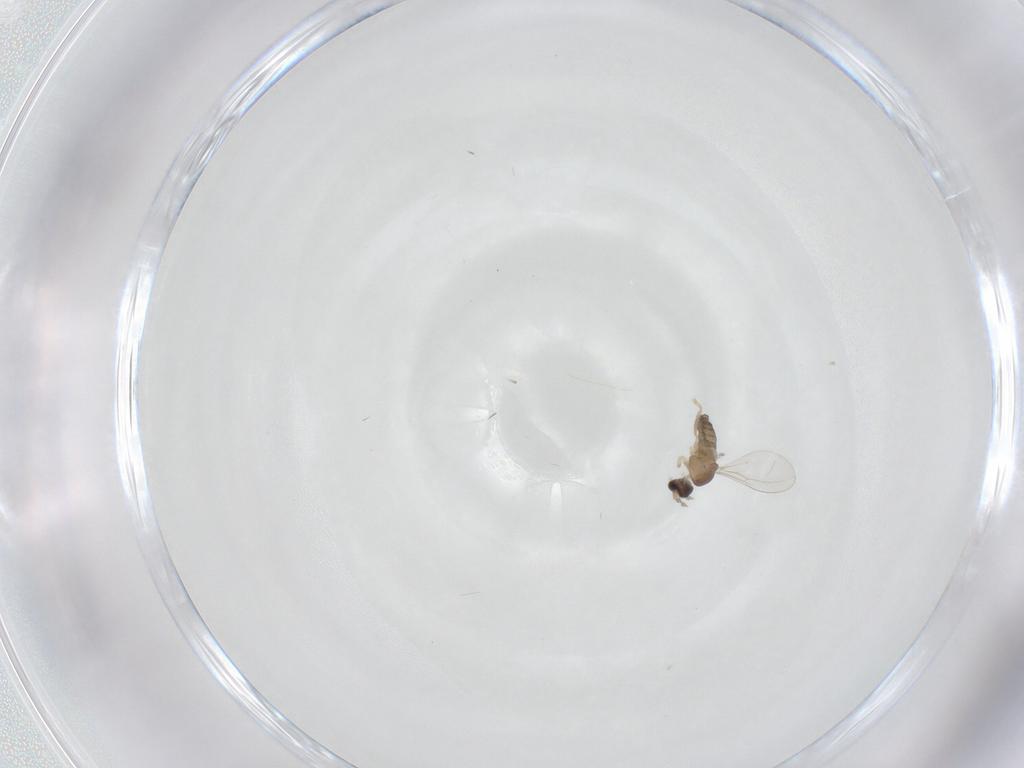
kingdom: Animalia
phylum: Arthropoda
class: Insecta
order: Diptera
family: Cecidomyiidae
